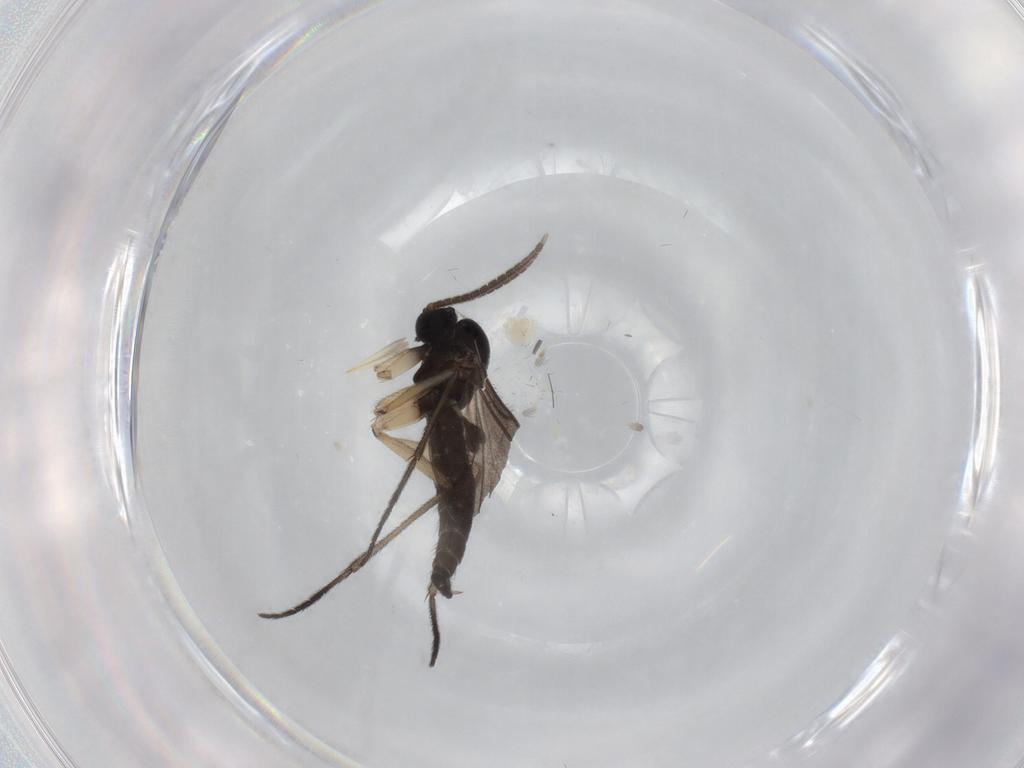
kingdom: Animalia
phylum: Arthropoda
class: Insecta
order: Diptera
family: Sciaridae
